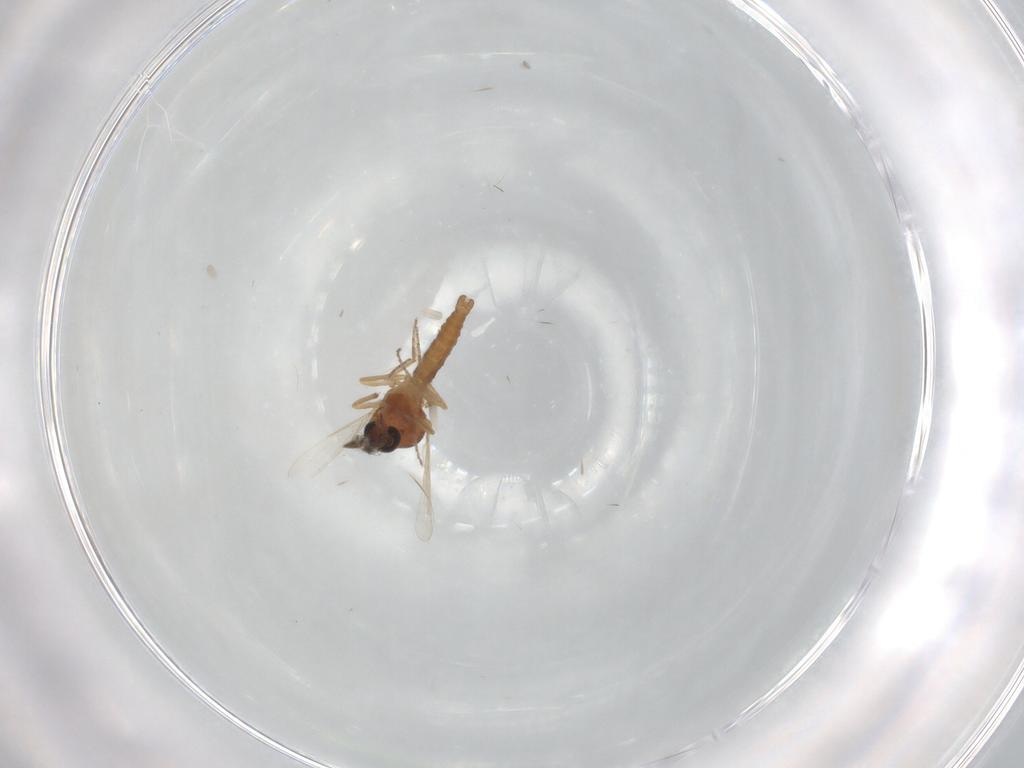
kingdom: Animalia
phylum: Arthropoda
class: Insecta
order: Diptera
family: Ceratopogonidae
